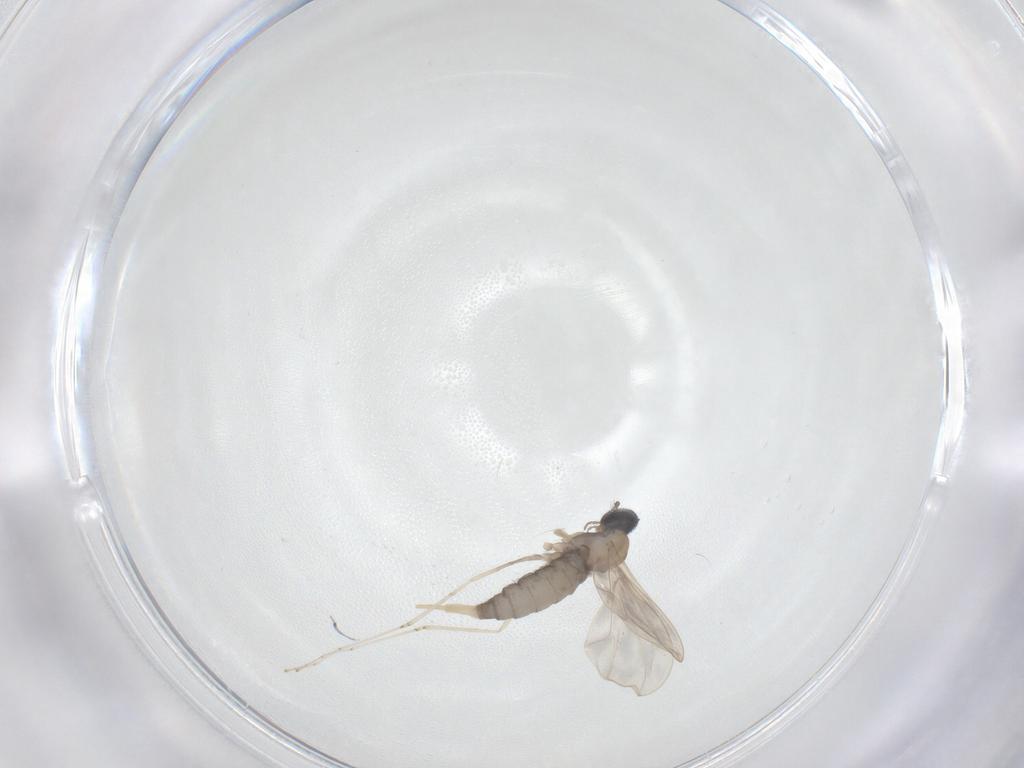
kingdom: Animalia
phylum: Arthropoda
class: Insecta
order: Diptera
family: Cecidomyiidae
